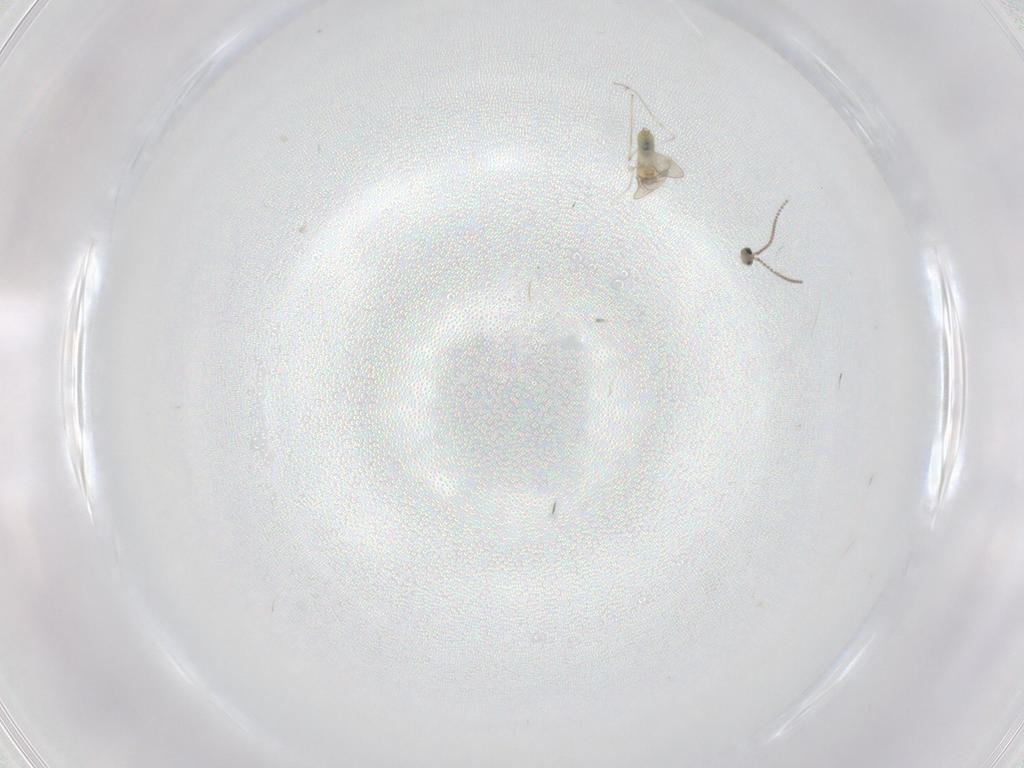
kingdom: Animalia
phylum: Arthropoda
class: Insecta
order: Diptera
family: Cecidomyiidae
